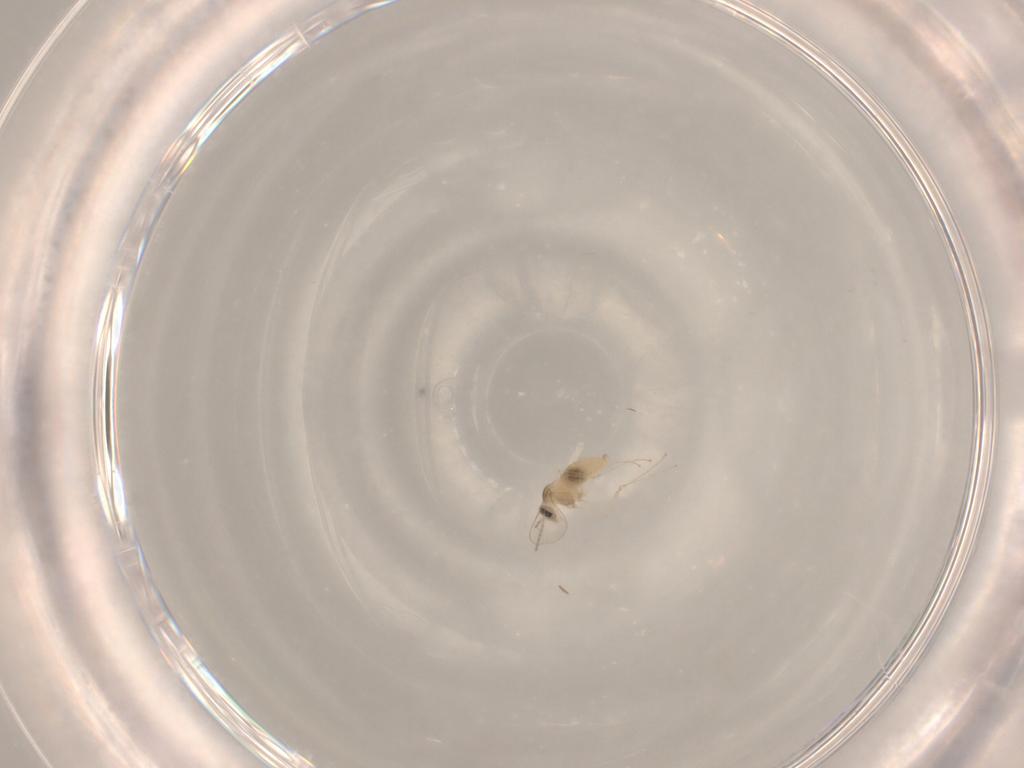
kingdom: Animalia
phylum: Arthropoda
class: Insecta
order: Diptera
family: Cecidomyiidae
